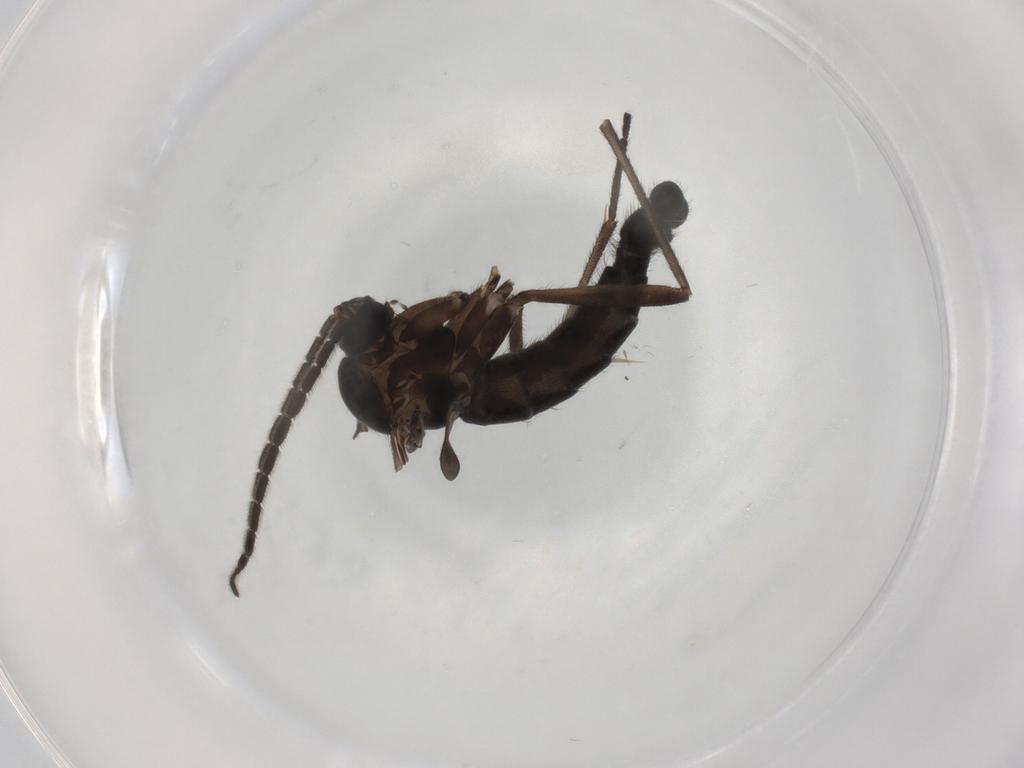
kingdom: Animalia
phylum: Arthropoda
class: Insecta
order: Diptera
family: Sciaridae
